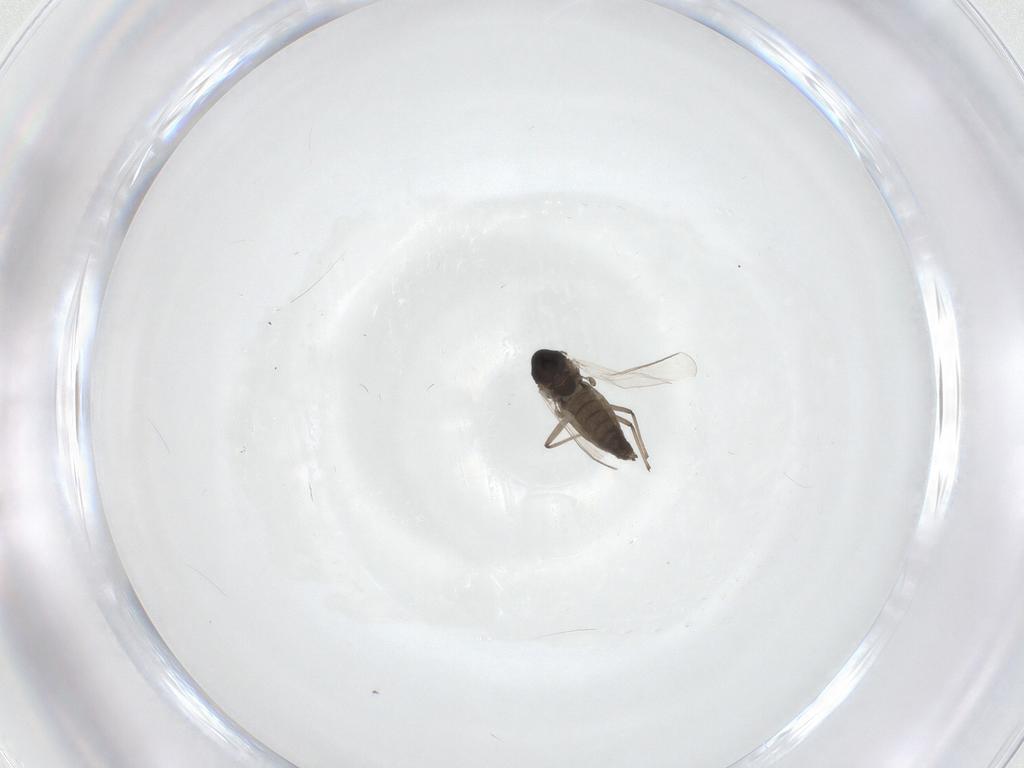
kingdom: Animalia
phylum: Arthropoda
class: Insecta
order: Diptera
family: Chironomidae
